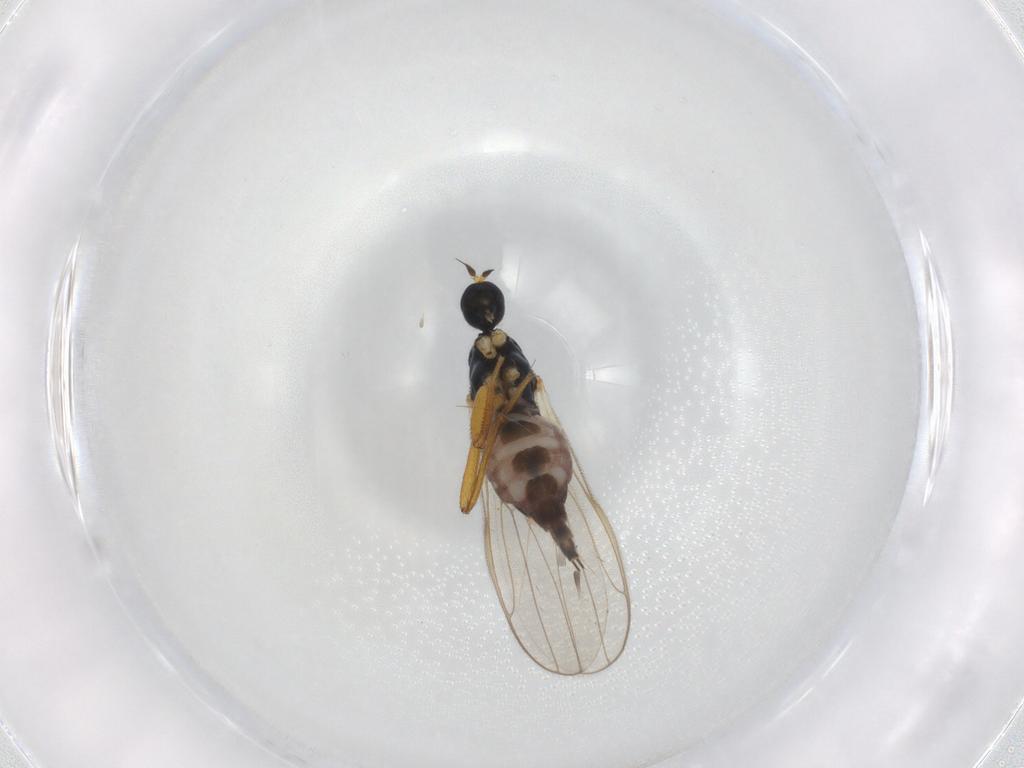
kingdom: Animalia
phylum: Arthropoda
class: Insecta
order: Diptera
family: Hybotidae
